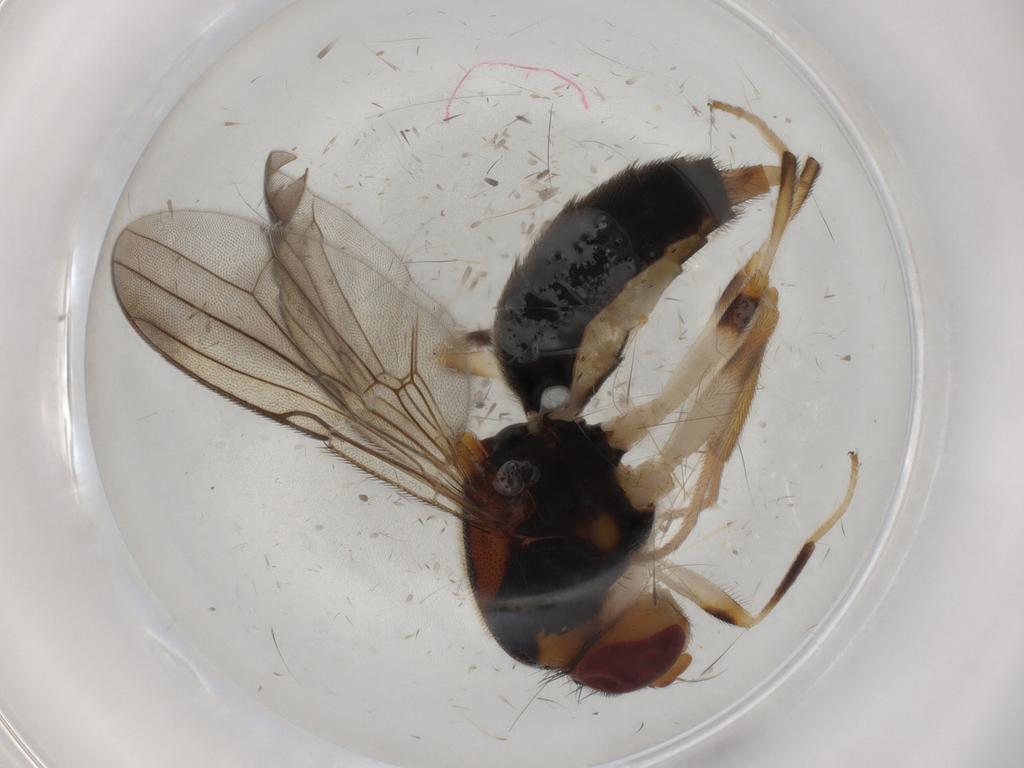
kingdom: Animalia
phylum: Arthropoda
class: Insecta
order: Diptera
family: Psilidae
